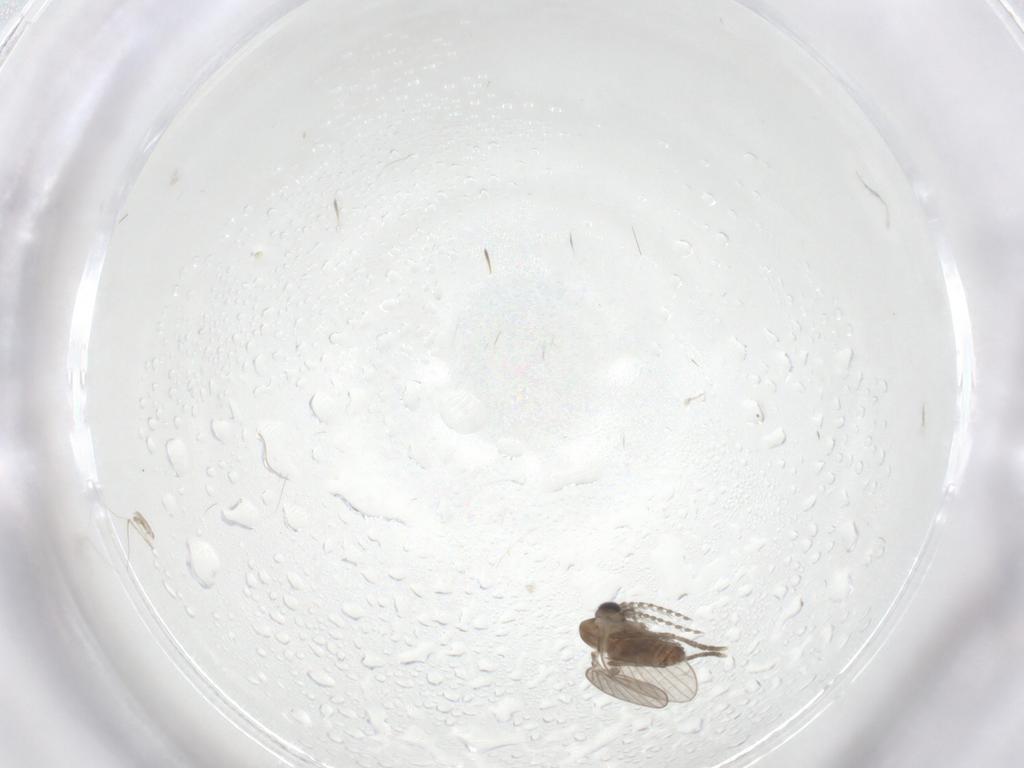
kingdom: Animalia
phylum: Arthropoda
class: Insecta
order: Diptera
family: Cecidomyiidae
